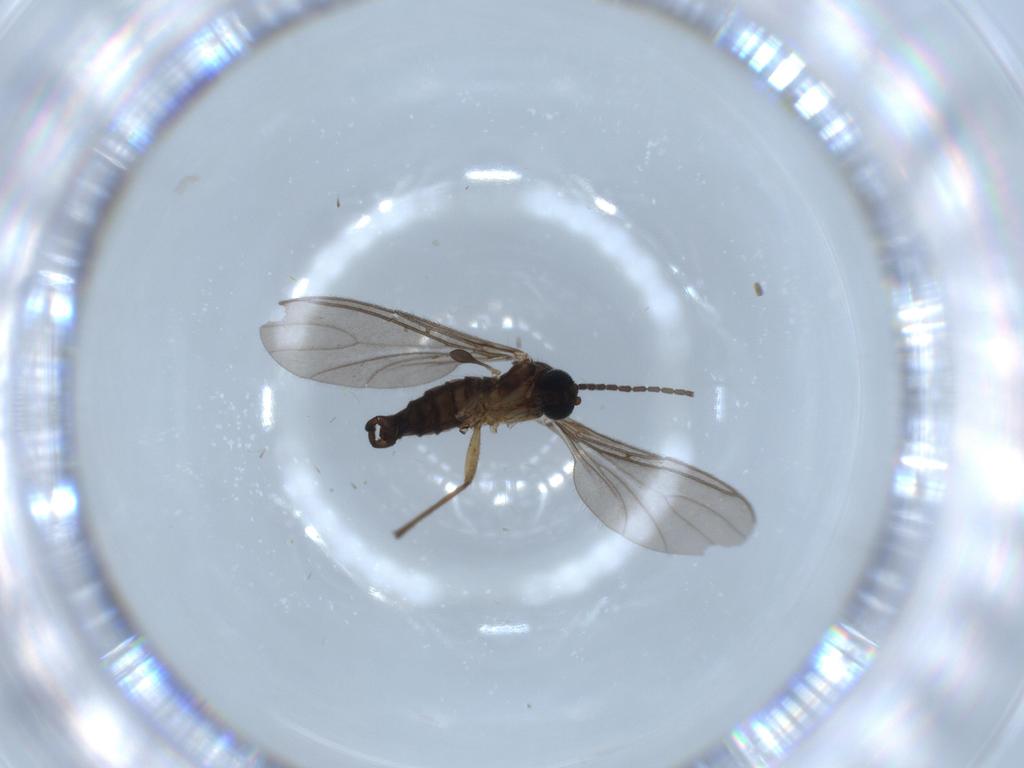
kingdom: Animalia
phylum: Arthropoda
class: Insecta
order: Diptera
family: Sciaridae
